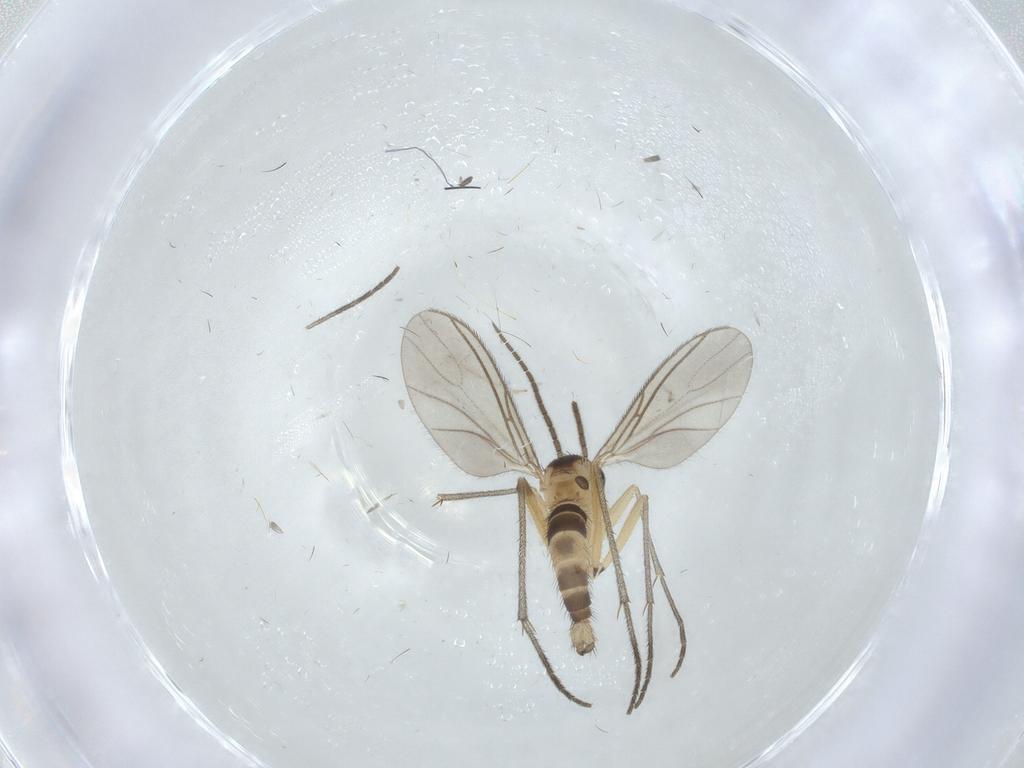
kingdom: Animalia
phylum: Arthropoda
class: Insecta
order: Diptera
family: Sciaridae
